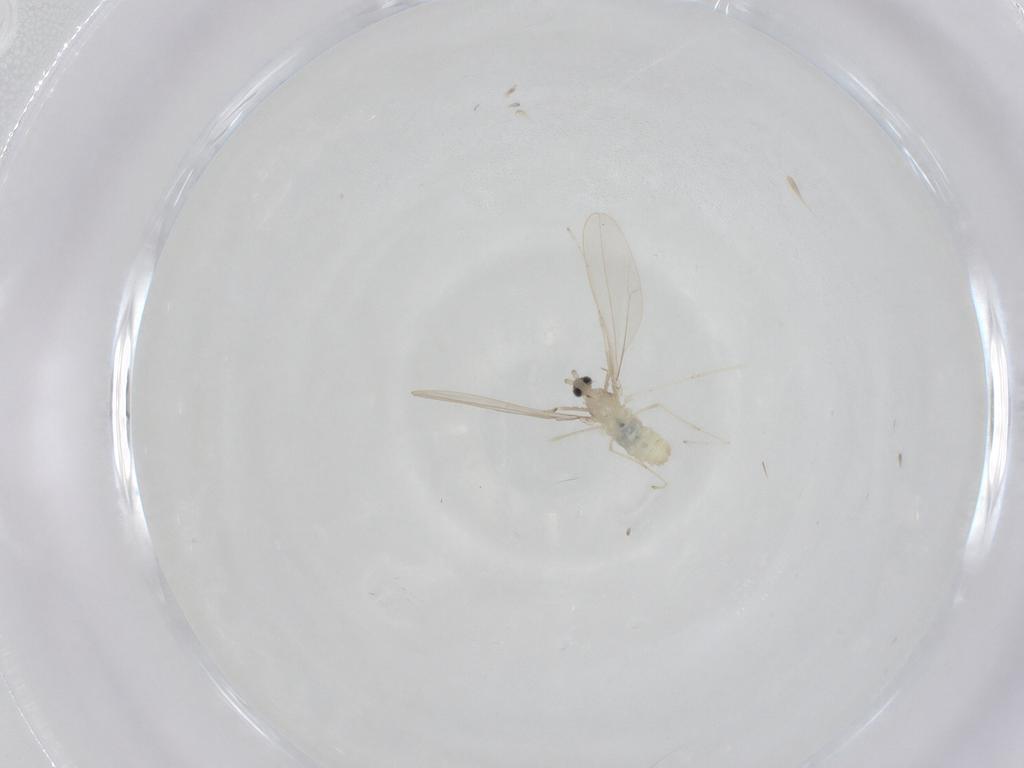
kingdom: Animalia
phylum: Arthropoda
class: Insecta
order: Diptera
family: Cecidomyiidae
